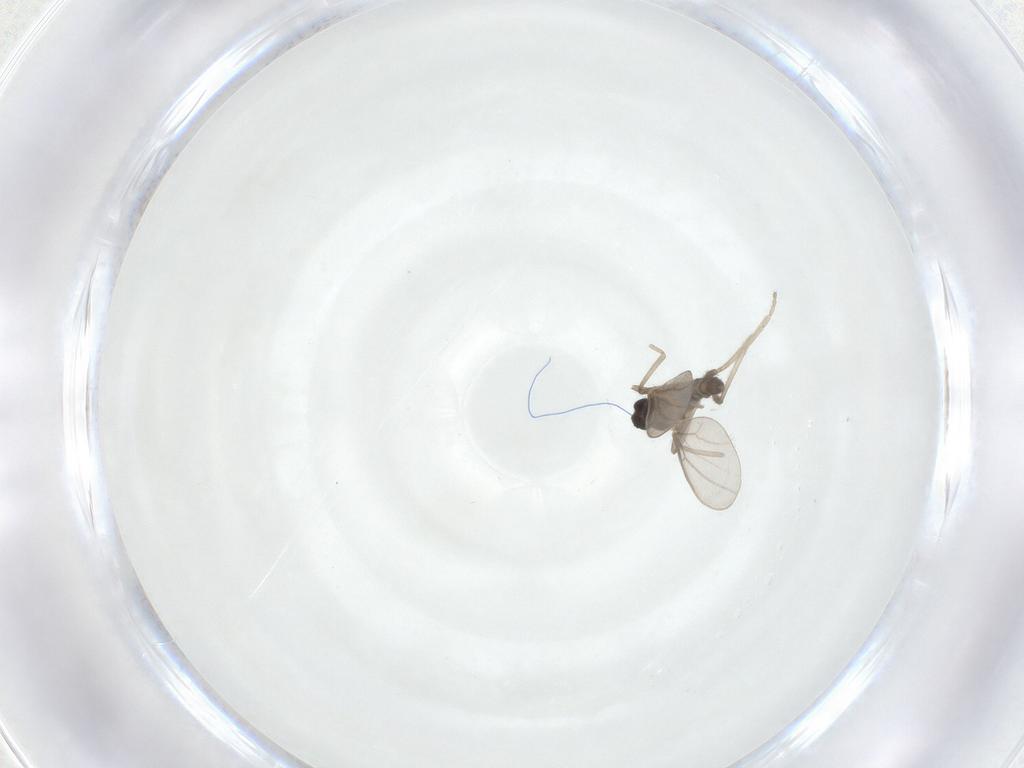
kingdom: Animalia
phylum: Arthropoda
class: Insecta
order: Diptera
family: Cecidomyiidae
